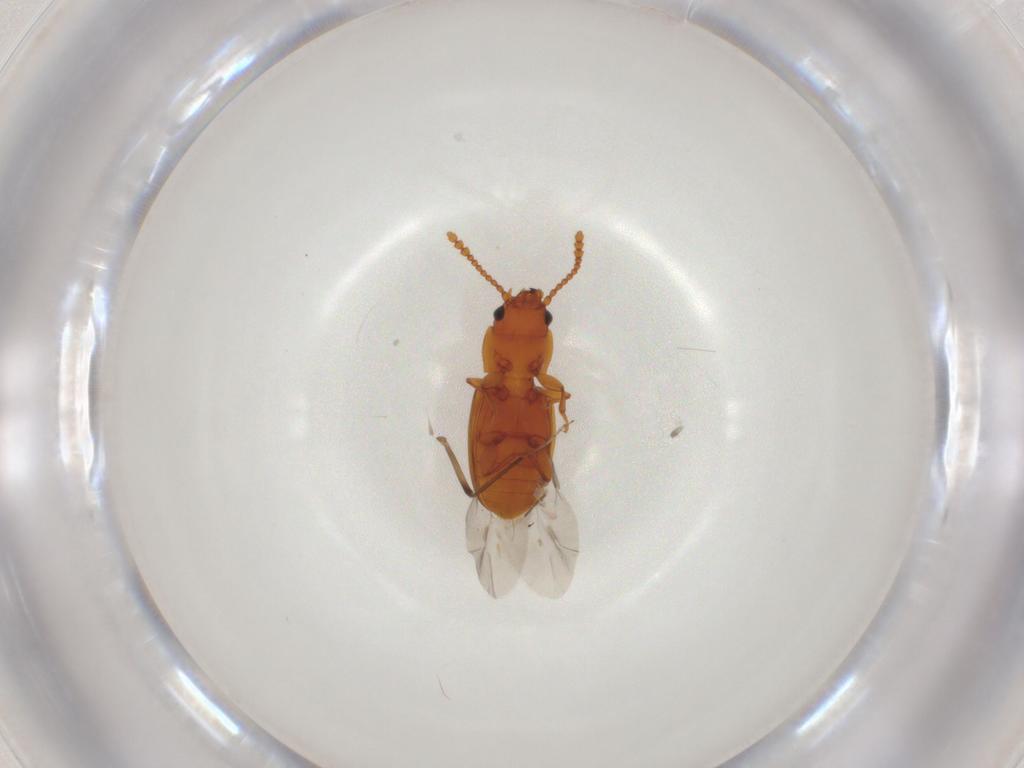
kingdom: Animalia
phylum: Arthropoda
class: Insecta
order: Coleoptera
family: Laemophloeidae
